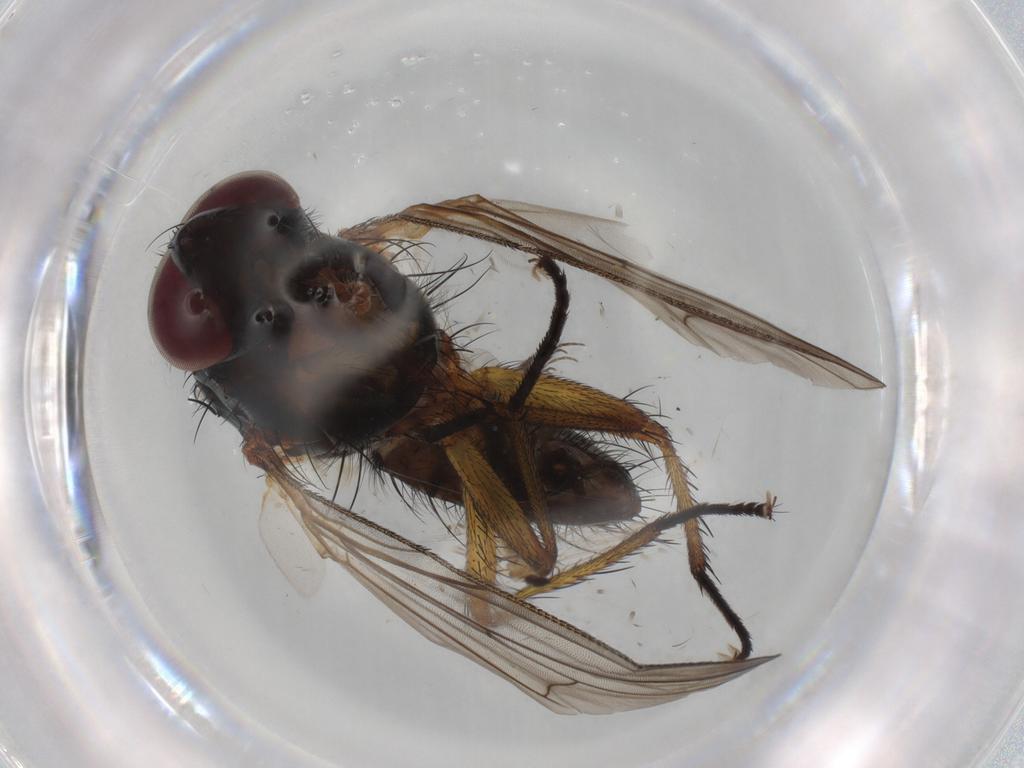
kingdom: Animalia
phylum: Arthropoda
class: Insecta
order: Diptera
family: Anthomyiidae
